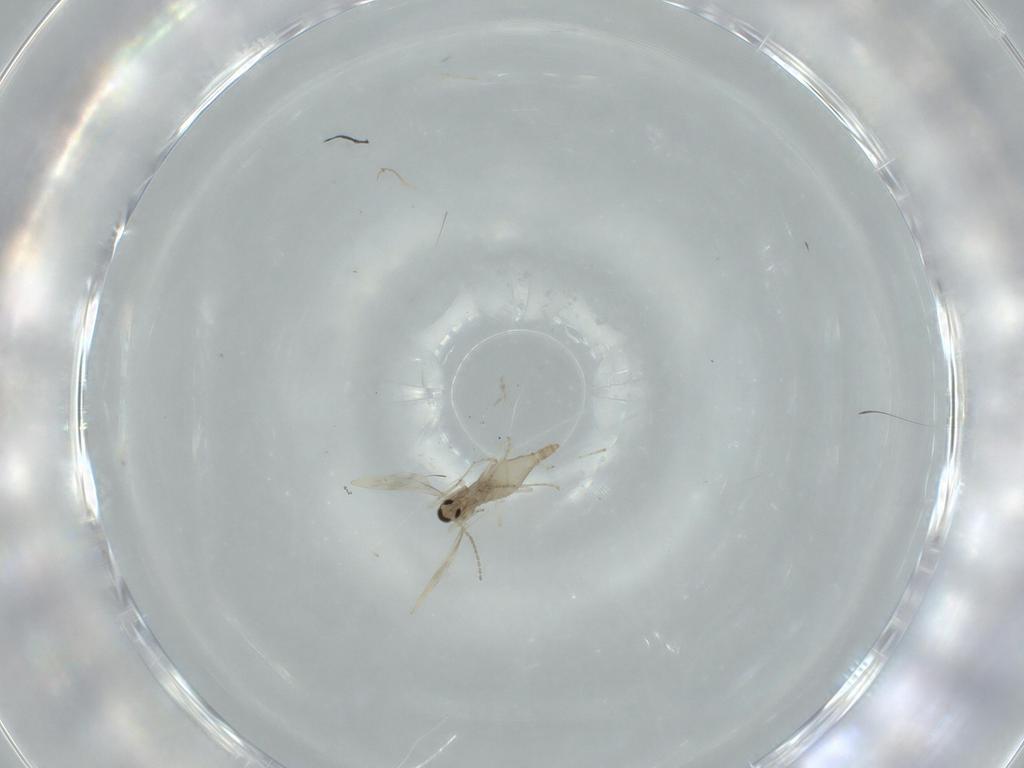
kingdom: Animalia
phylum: Arthropoda
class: Insecta
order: Diptera
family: Cecidomyiidae
